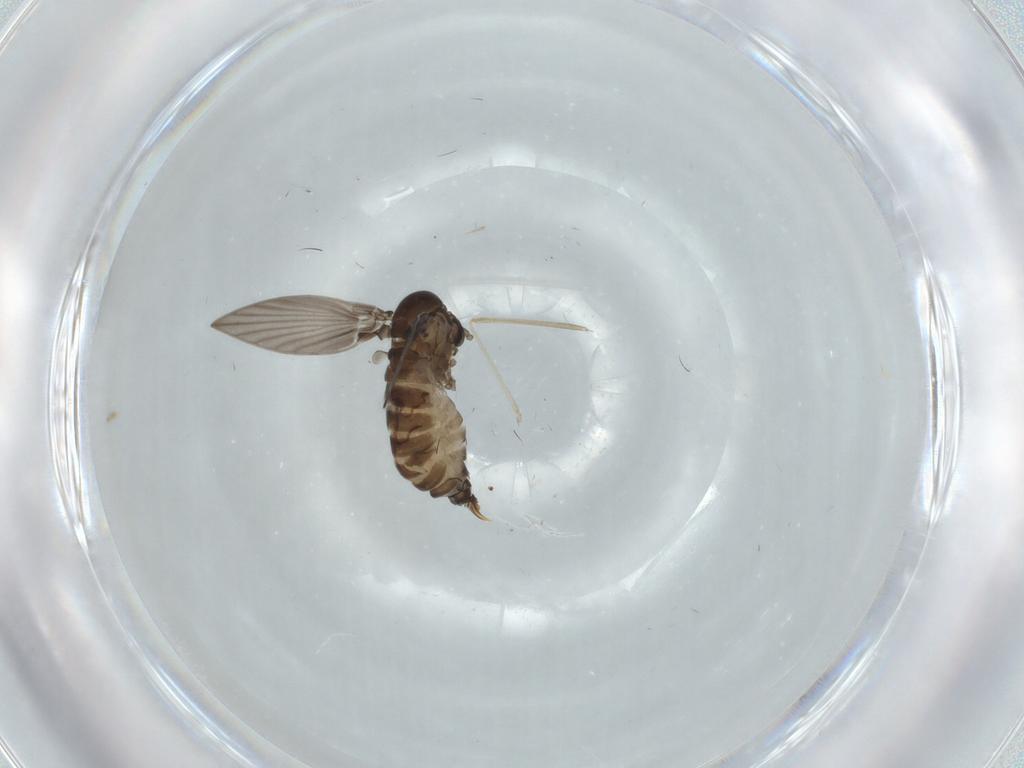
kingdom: Animalia
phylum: Arthropoda
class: Insecta
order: Diptera
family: Psychodidae
